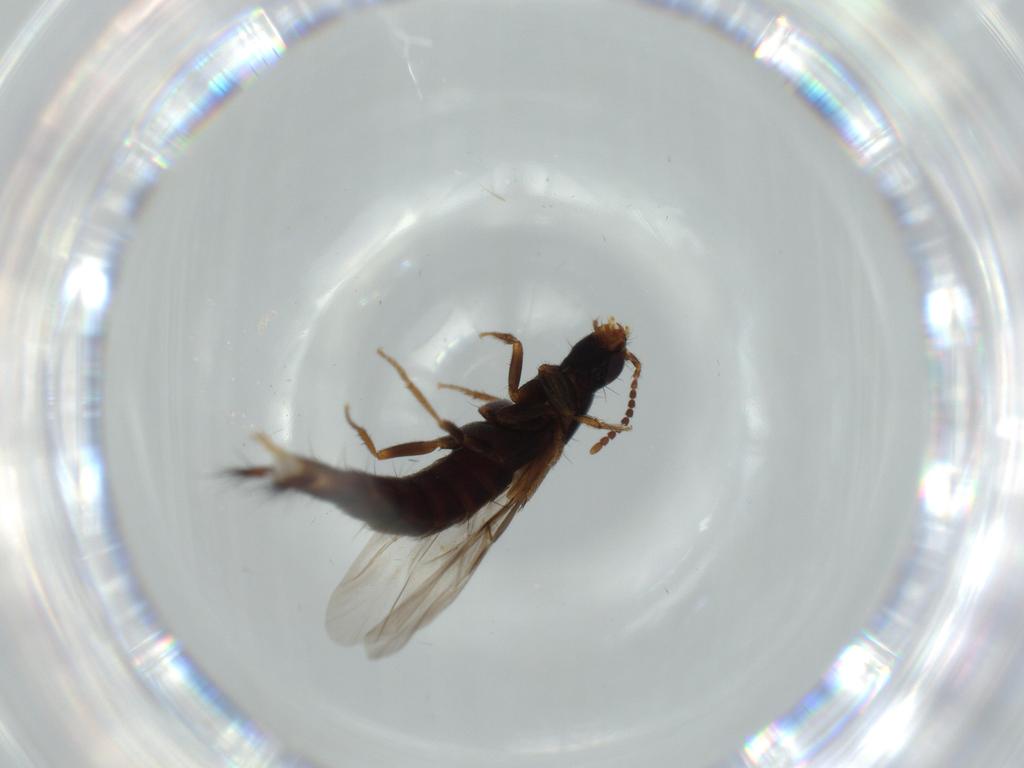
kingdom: Animalia
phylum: Arthropoda
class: Insecta
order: Coleoptera
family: Staphylinidae
